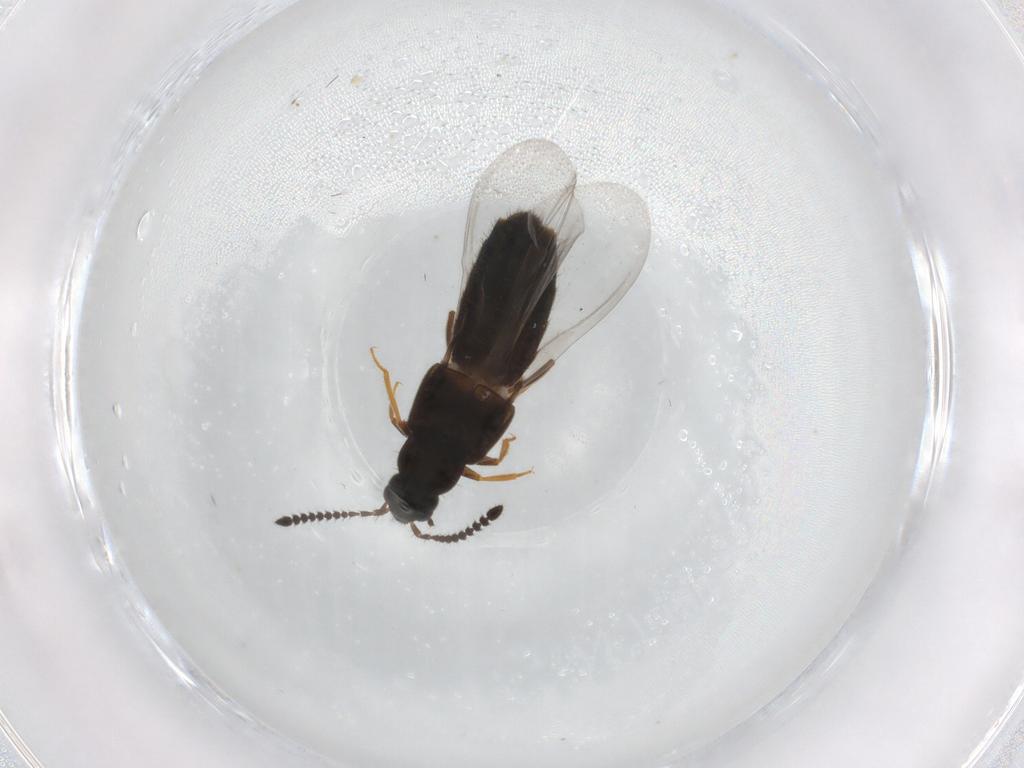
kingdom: Animalia
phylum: Arthropoda
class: Insecta
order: Coleoptera
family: Staphylinidae
